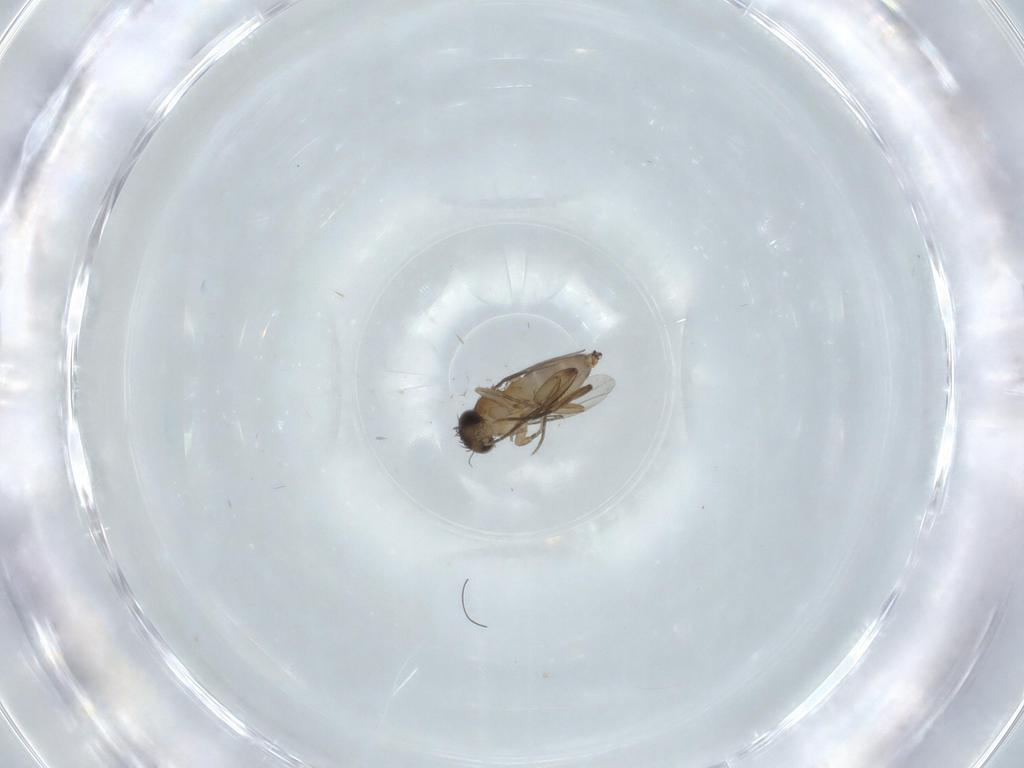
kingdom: Animalia
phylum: Arthropoda
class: Insecta
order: Diptera
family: Phoridae
